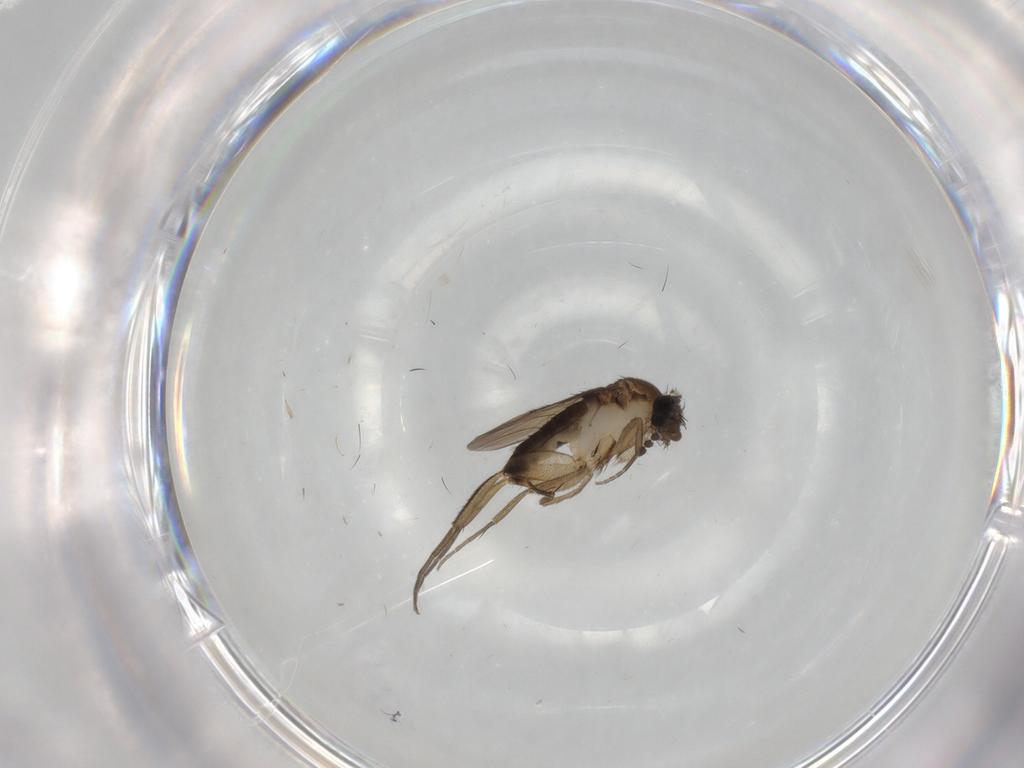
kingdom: Animalia
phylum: Arthropoda
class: Insecta
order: Diptera
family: Phoridae
